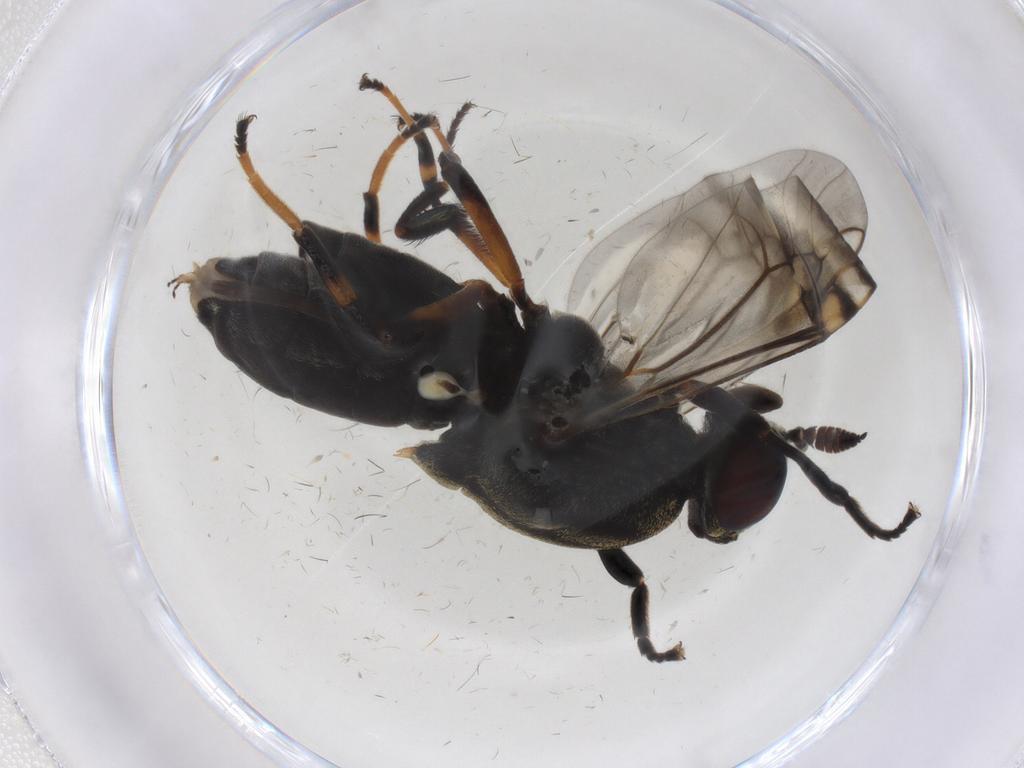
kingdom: Animalia
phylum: Arthropoda
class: Insecta
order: Diptera
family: Stratiomyidae
